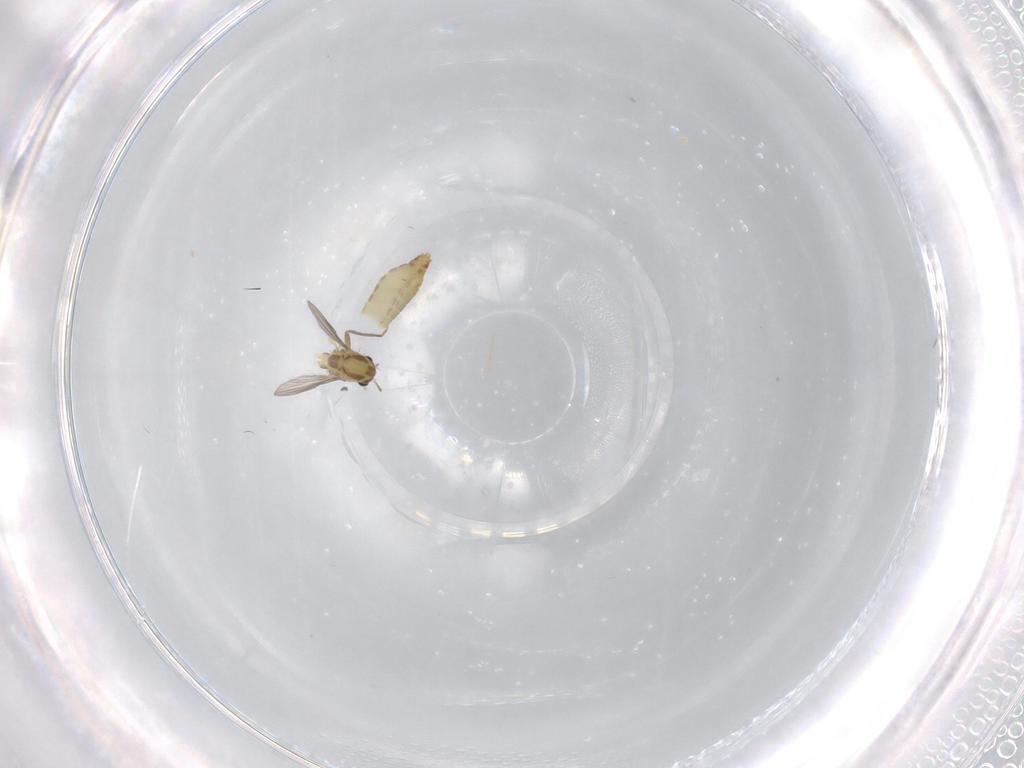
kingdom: Animalia
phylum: Arthropoda
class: Insecta
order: Diptera
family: Chironomidae
